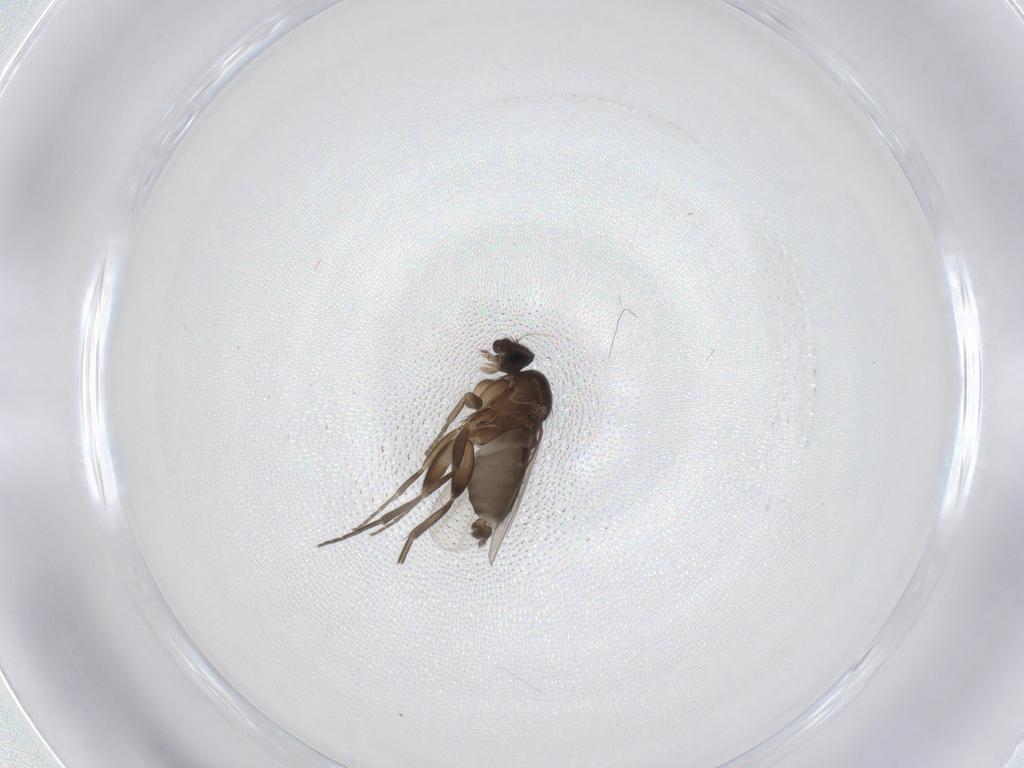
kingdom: Animalia
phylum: Arthropoda
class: Insecta
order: Diptera
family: Phoridae
